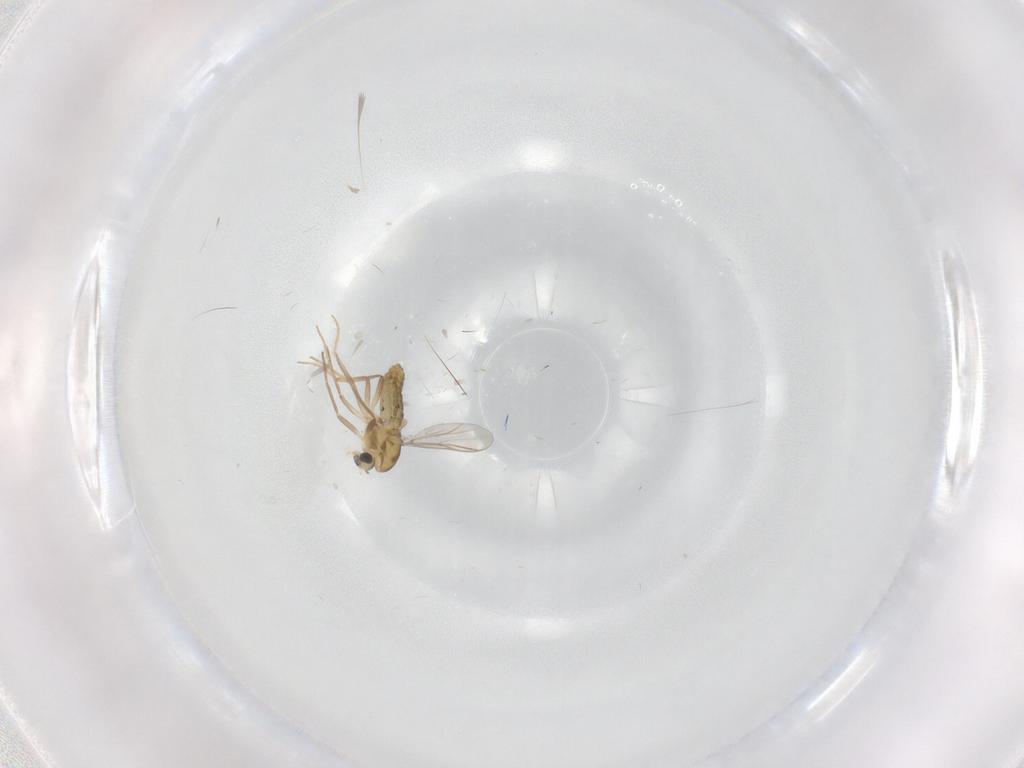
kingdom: Animalia
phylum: Arthropoda
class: Insecta
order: Diptera
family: Chironomidae
